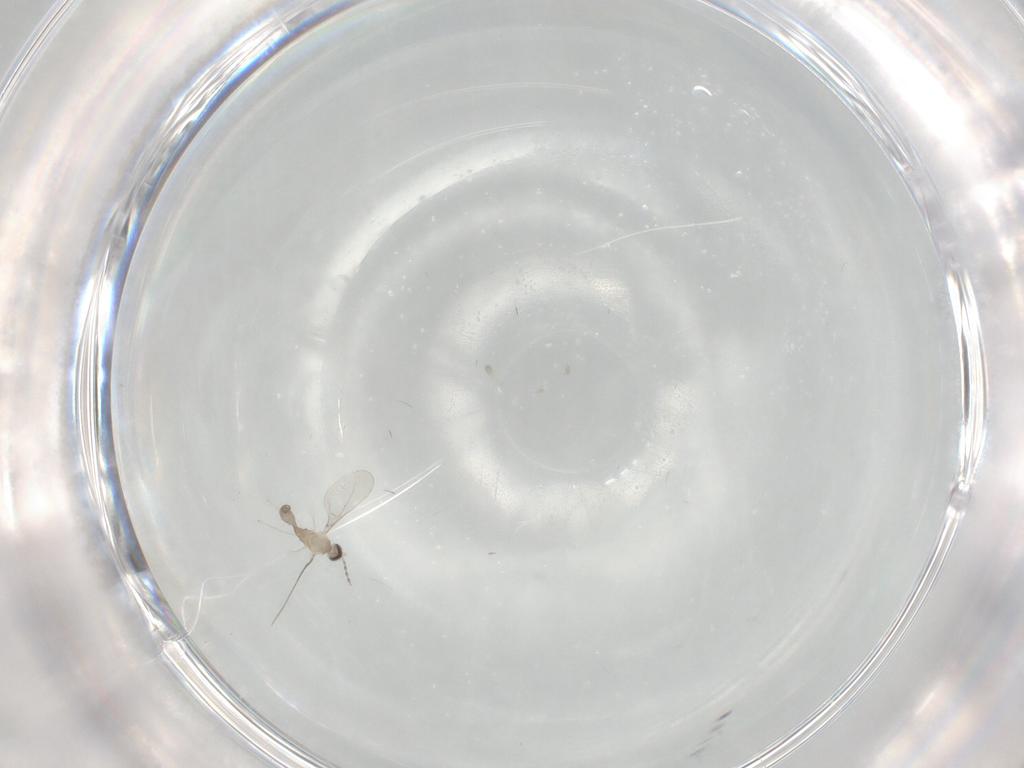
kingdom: Animalia
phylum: Arthropoda
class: Insecta
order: Diptera
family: Cecidomyiidae
